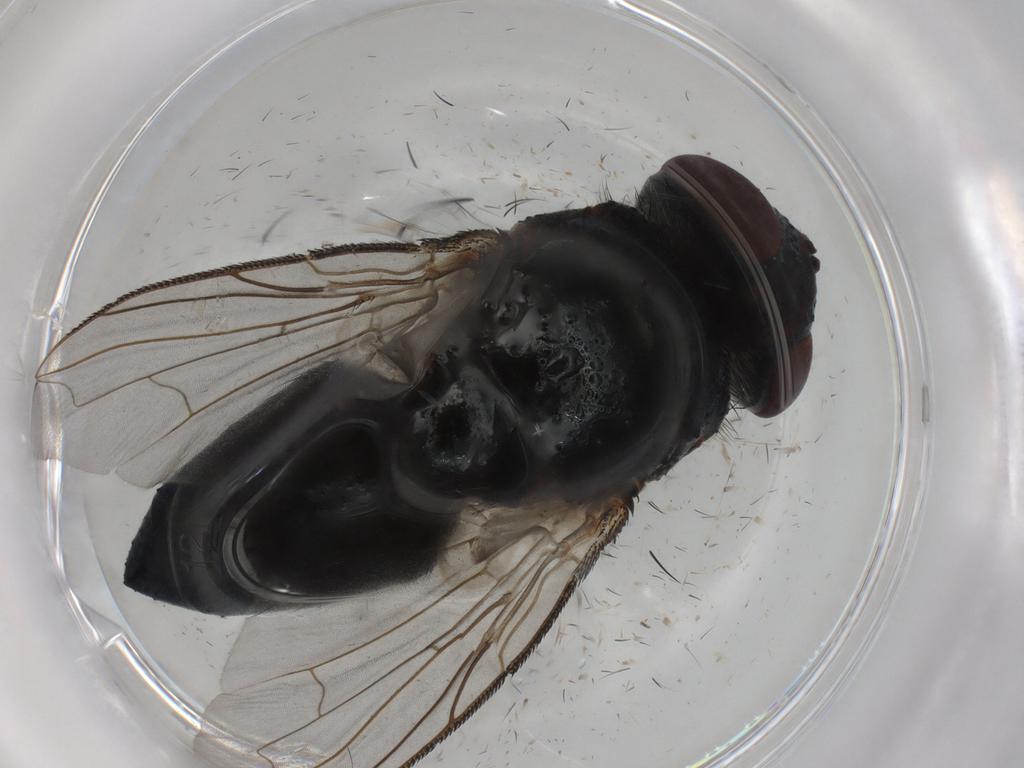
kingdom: Animalia
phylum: Arthropoda
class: Insecta
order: Diptera
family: Tachinidae
